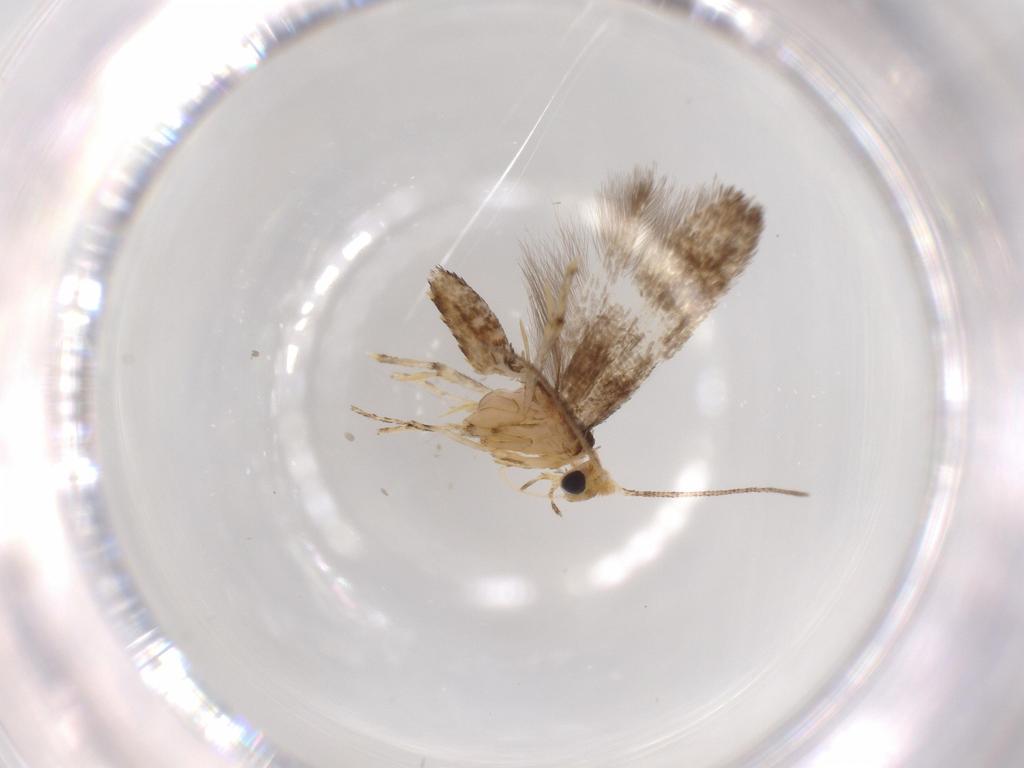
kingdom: Animalia
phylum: Arthropoda
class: Insecta
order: Lepidoptera
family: Argyresthiidae
